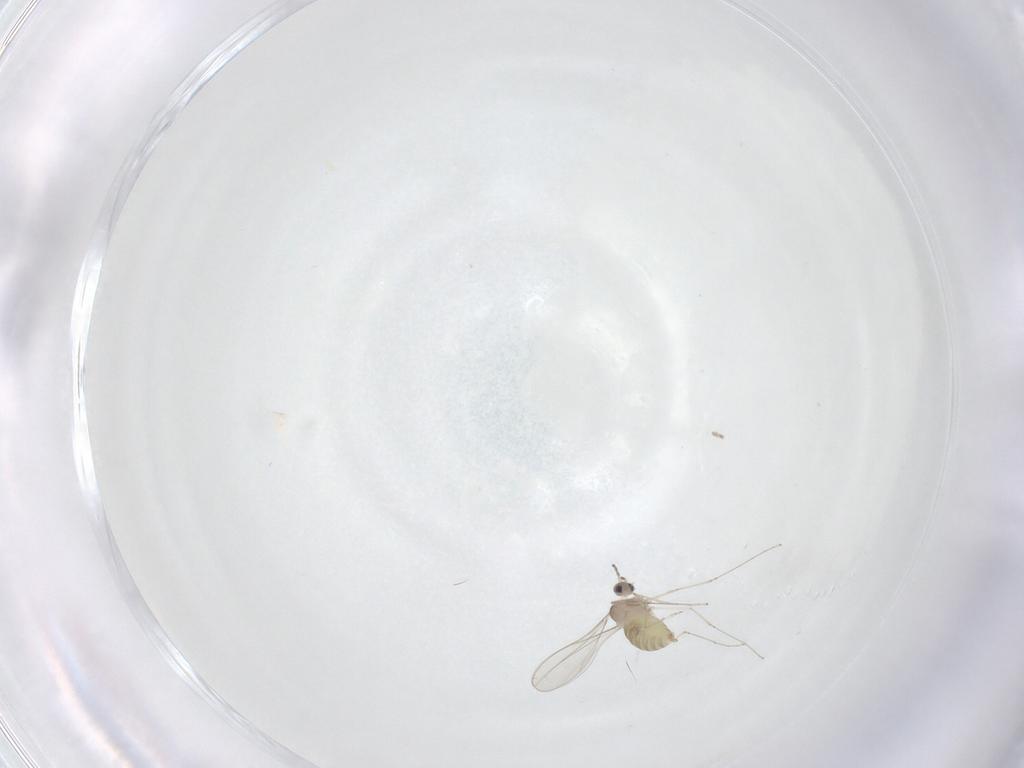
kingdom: Animalia
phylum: Arthropoda
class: Insecta
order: Diptera
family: Cecidomyiidae
